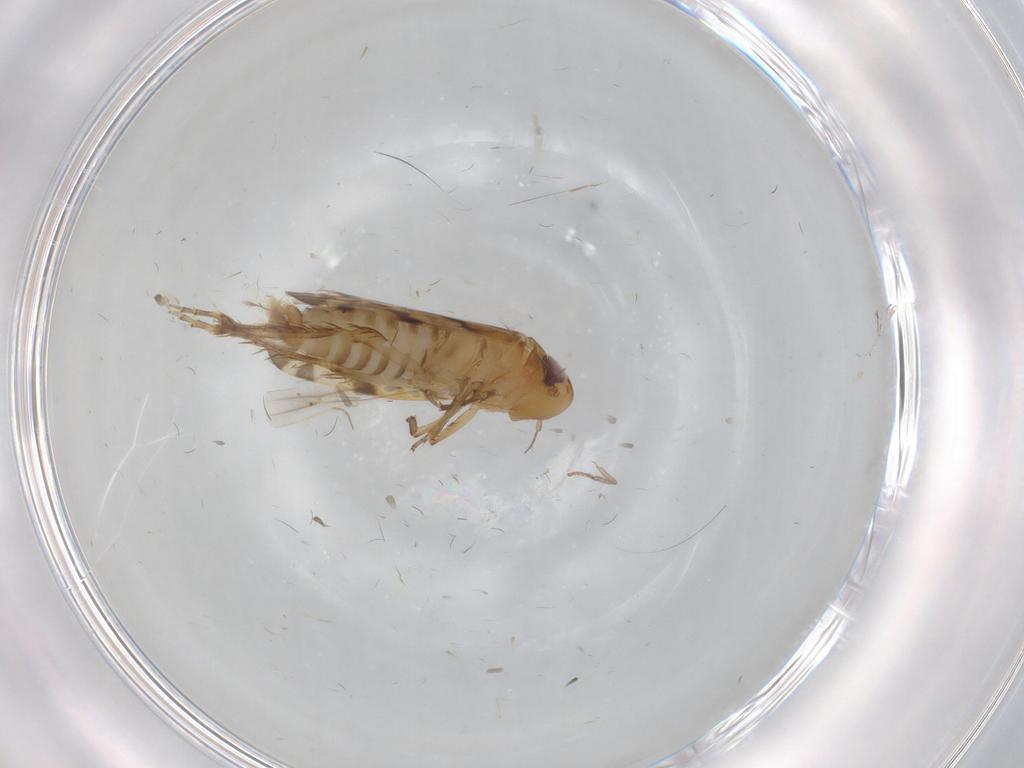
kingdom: Animalia
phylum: Arthropoda
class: Insecta
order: Hemiptera
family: Cicadellidae
